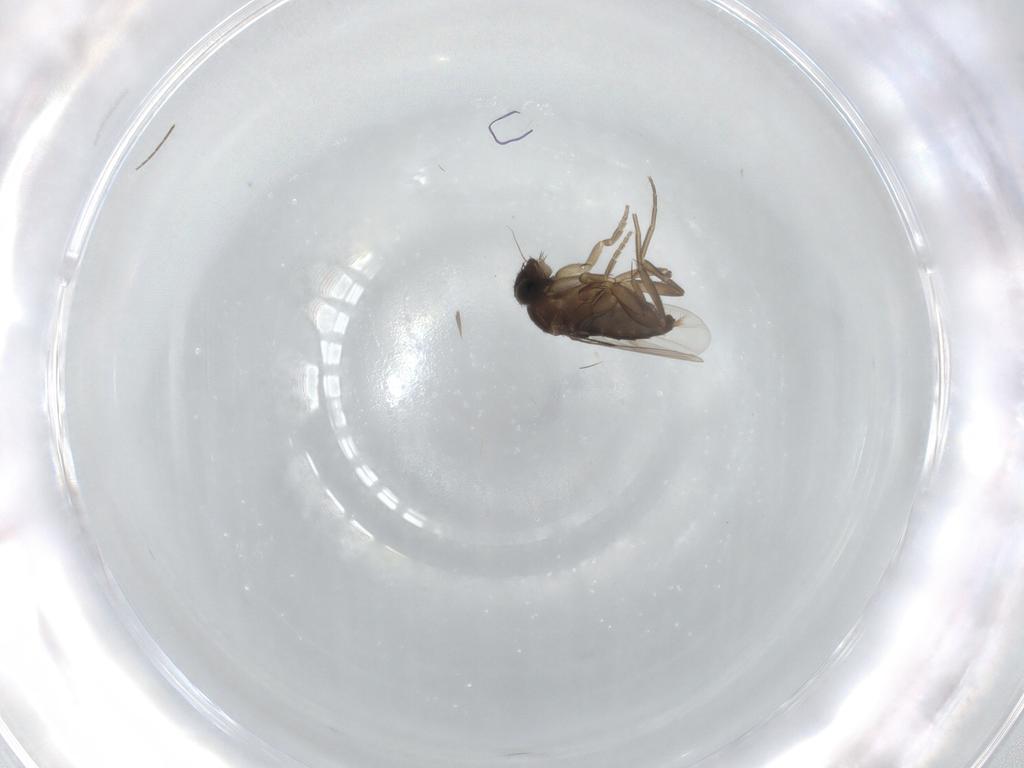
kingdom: Animalia
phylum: Arthropoda
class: Insecta
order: Diptera
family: Phoridae
